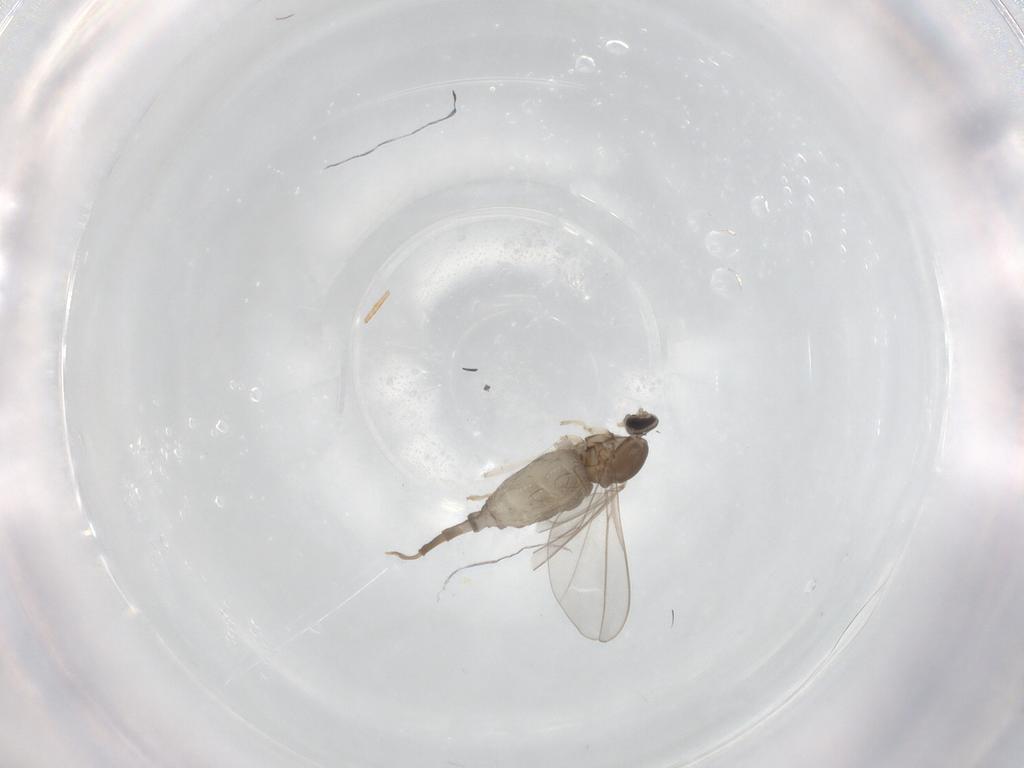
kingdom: Animalia
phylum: Arthropoda
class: Insecta
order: Diptera
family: Cecidomyiidae
